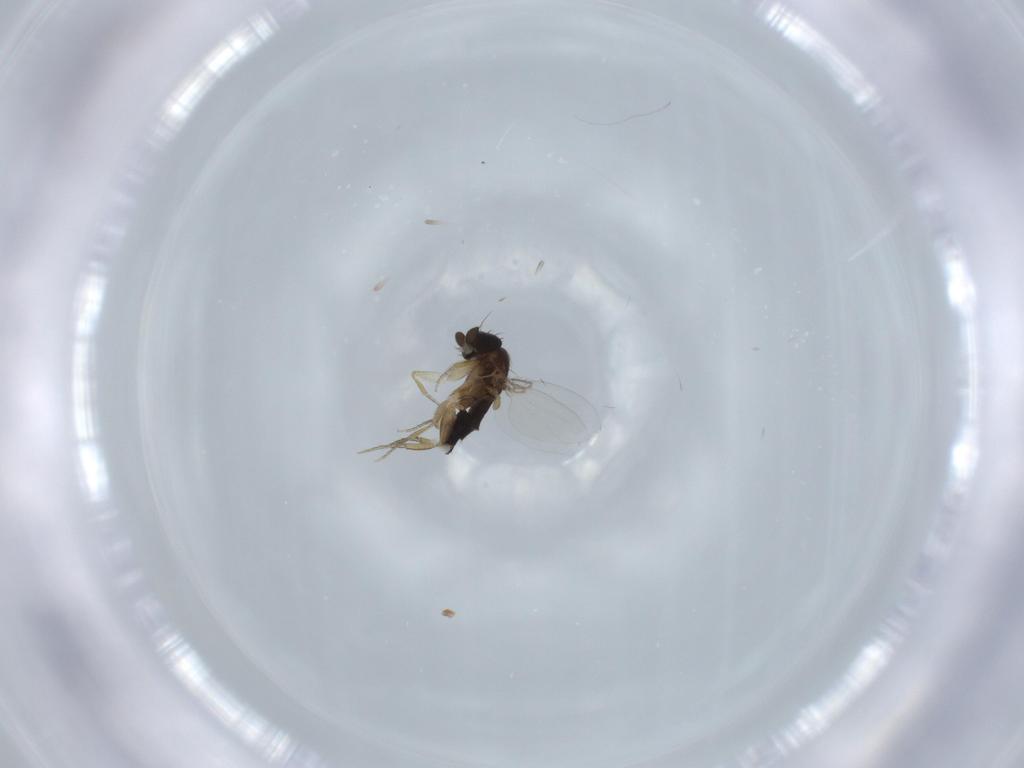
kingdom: Animalia
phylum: Arthropoda
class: Insecta
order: Diptera
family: Phoridae
